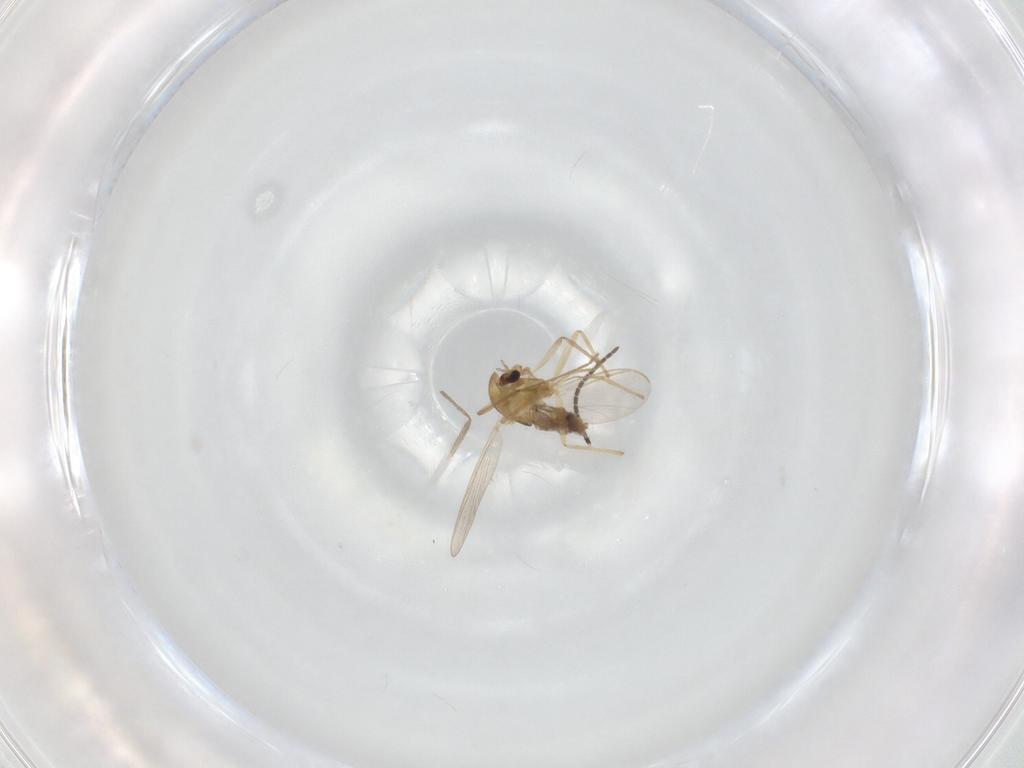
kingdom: Animalia
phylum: Arthropoda
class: Insecta
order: Diptera
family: Chironomidae
